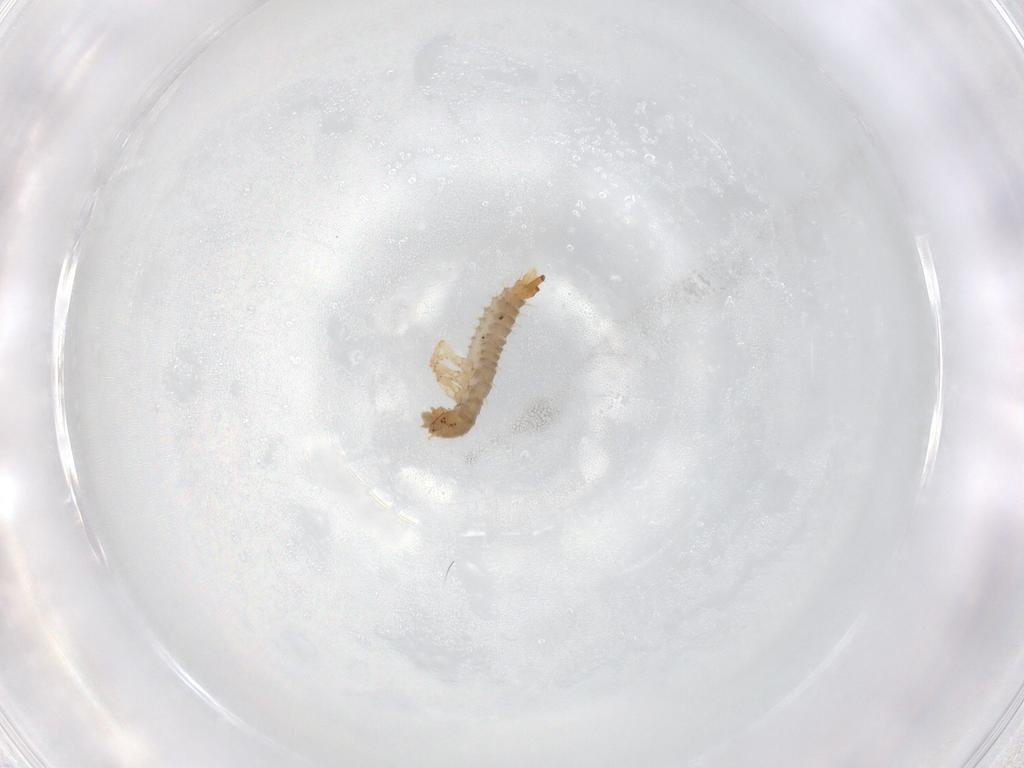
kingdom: Animalia
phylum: Arthropoda
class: Insecta
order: Coleoptera
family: Staphylinidae
